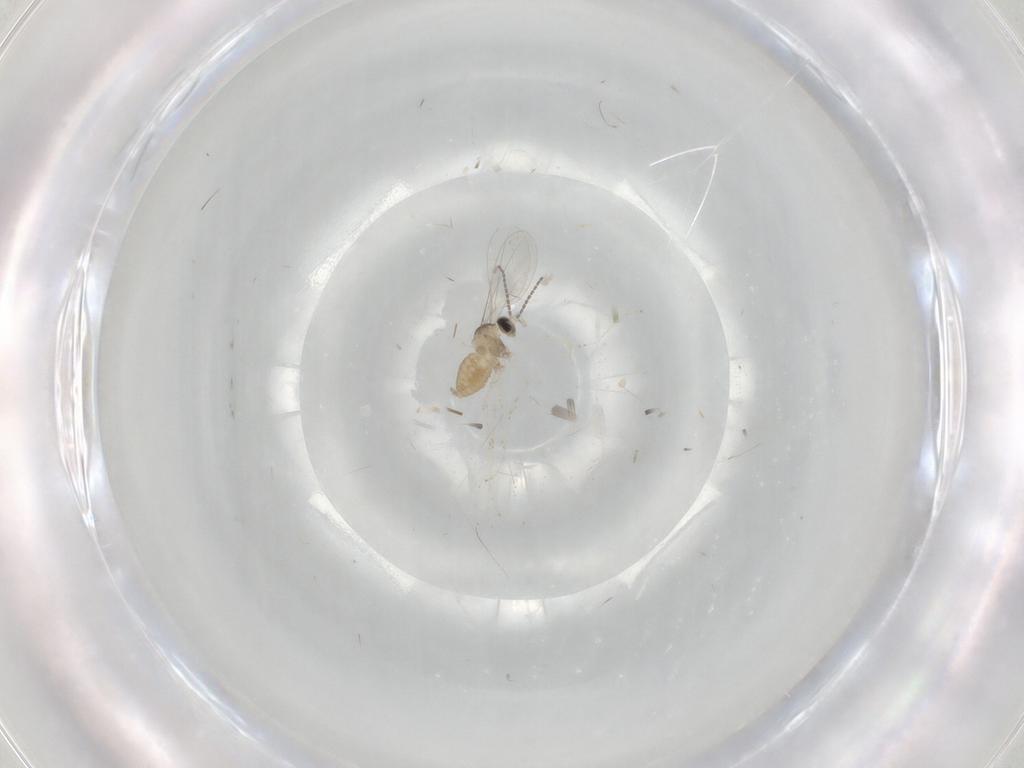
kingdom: Animalia
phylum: Arthropoda
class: Insecta
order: Diptera
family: Cecidomyiidae
